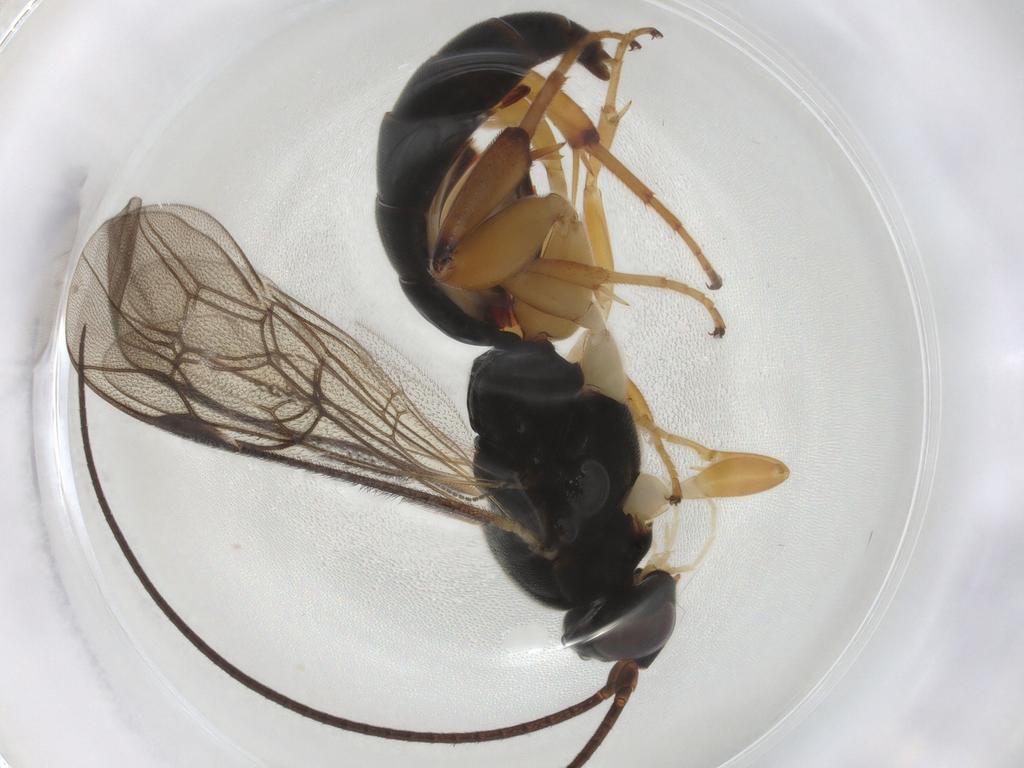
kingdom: Animalia
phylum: Arthropoda
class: Insecta
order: Hymenoptera
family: Ichneumonidae
